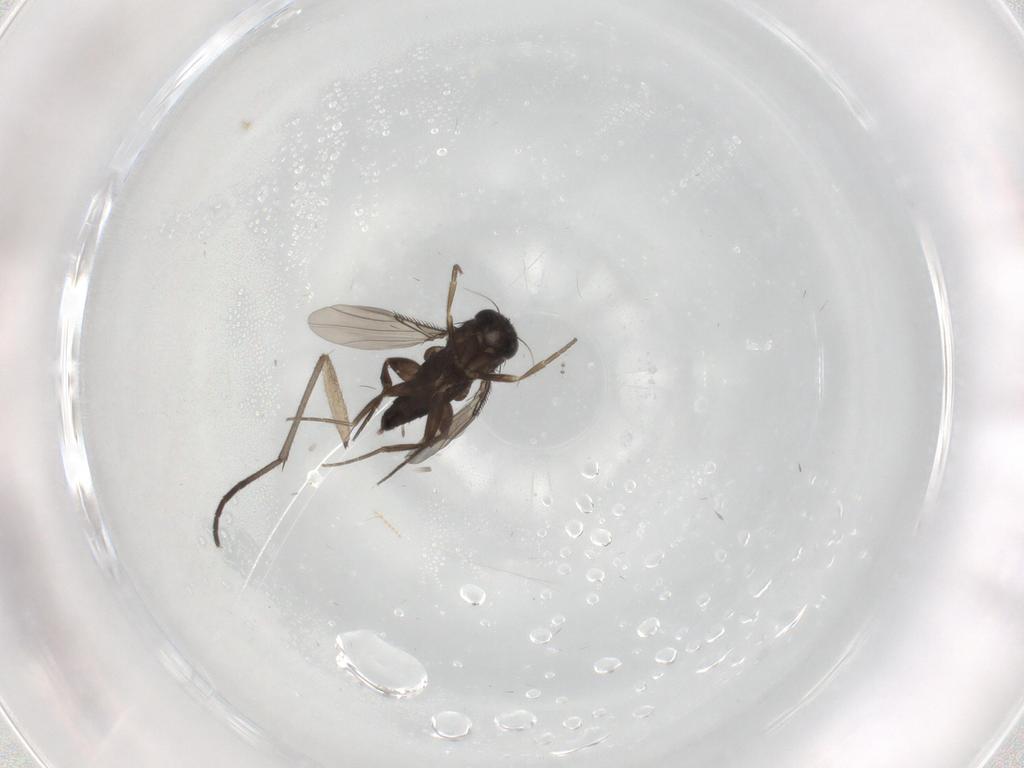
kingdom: Animalia
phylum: Arthropoda
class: Insecta
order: Diptera
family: Sciaridae
